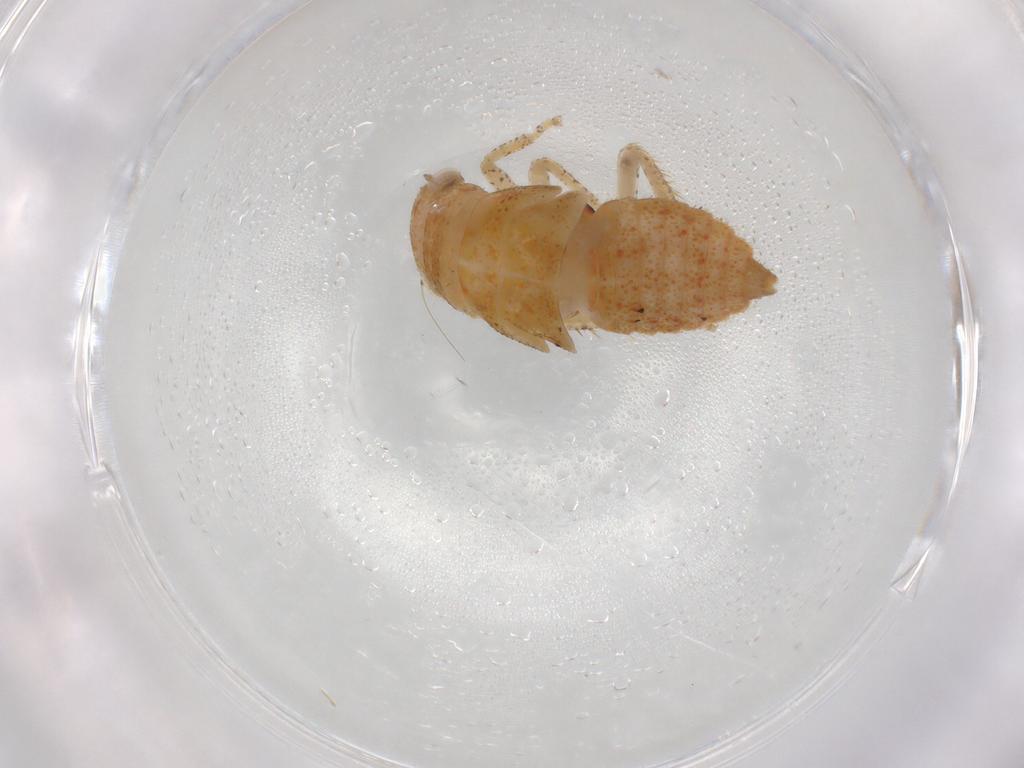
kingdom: Animalia
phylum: Arthropoda
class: Insecta
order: Hemiptera
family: Cicadellidae
